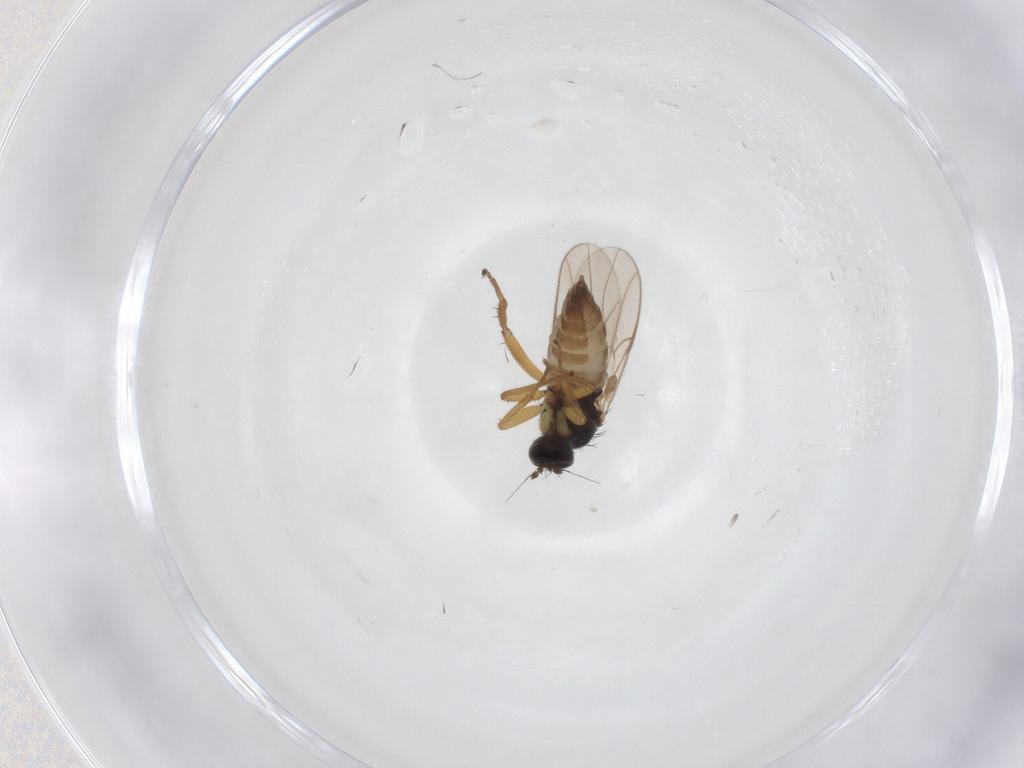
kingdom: Animalia
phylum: Arthropoda
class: Insecta
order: Diptera
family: Hybotidae
